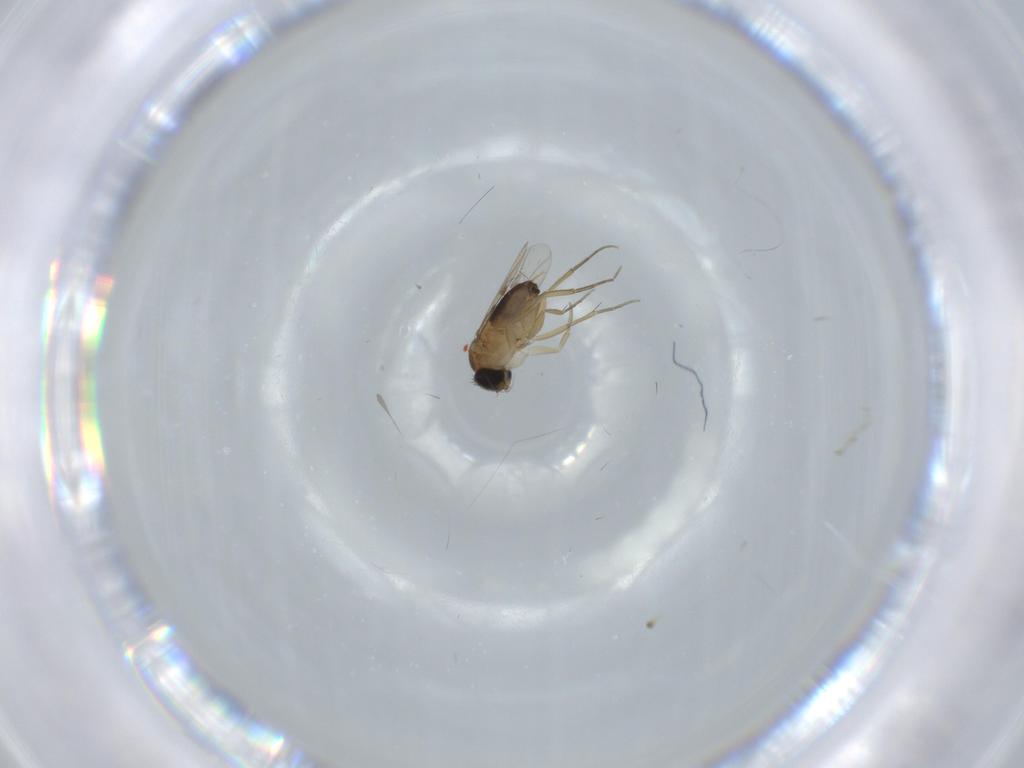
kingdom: Animalia
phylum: Arthropoda
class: Insecta
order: Diptera
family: Phoridae
